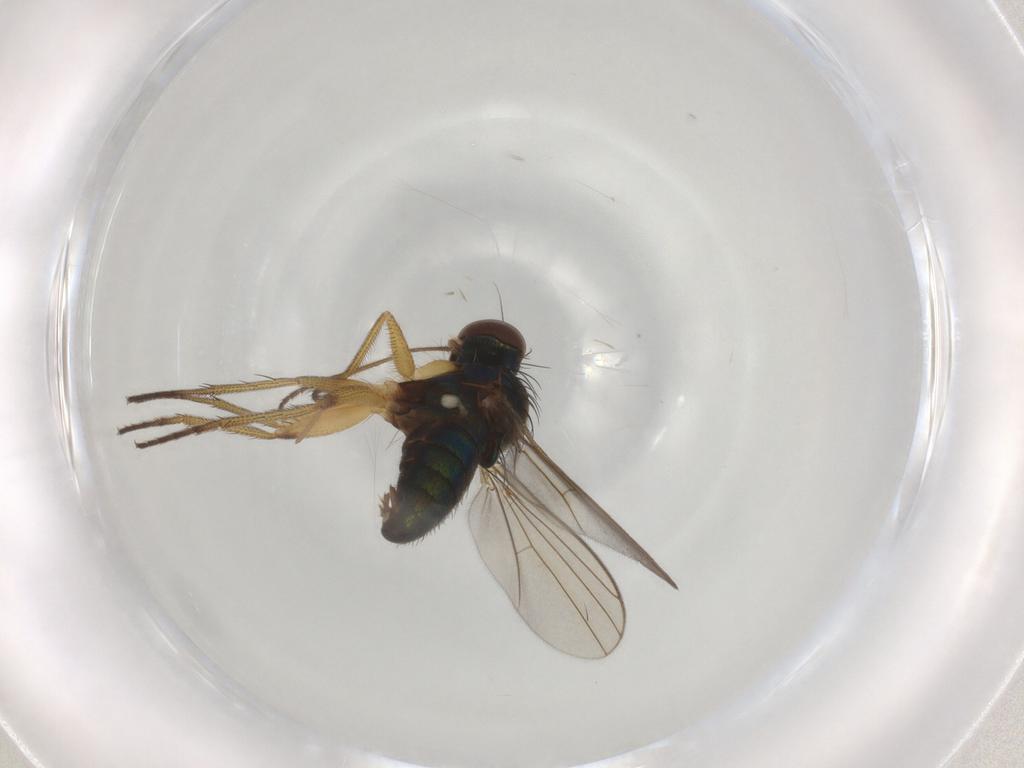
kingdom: Animalia
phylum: Arthropoda
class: Insecta
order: Diptera
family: Chironomidae
